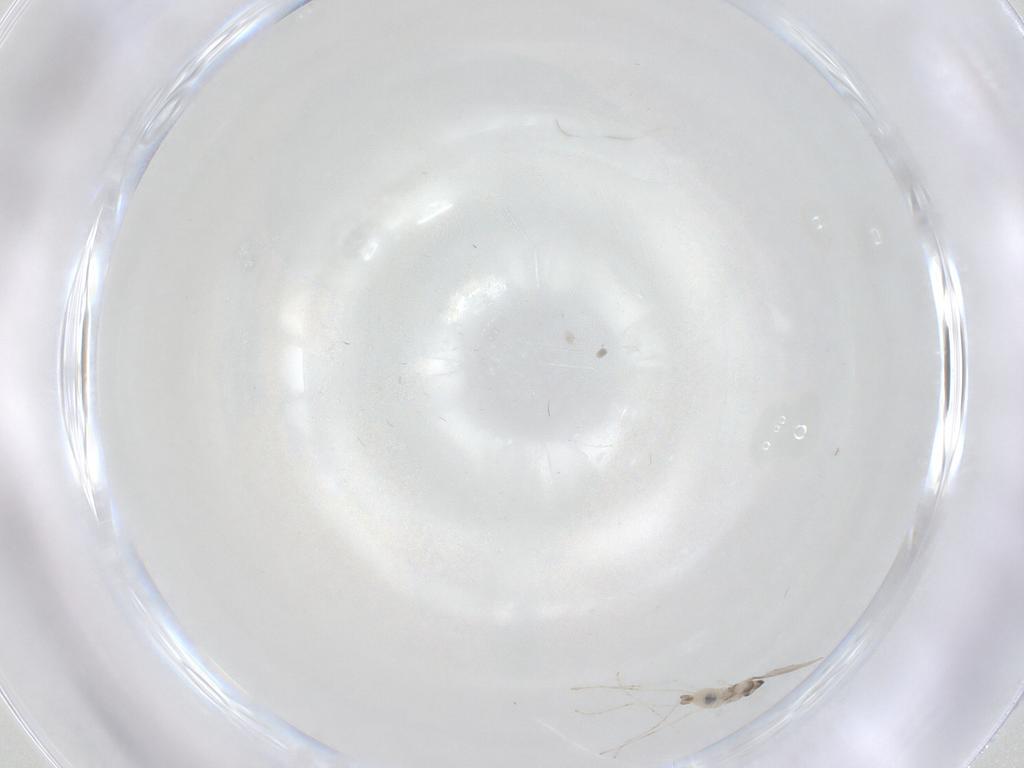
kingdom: Animalia
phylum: Arthropoda
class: Insecta
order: Diptera
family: Cecidomyiidae
